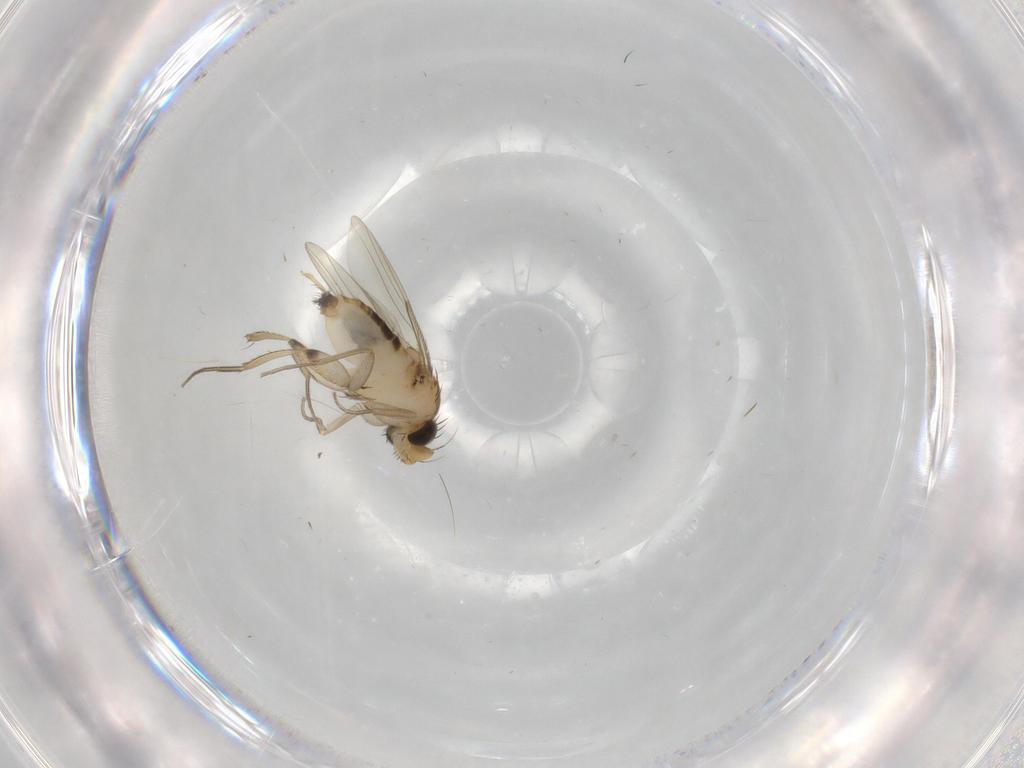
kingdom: Animalia
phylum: Arthropoda
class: Insecta
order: Diptera
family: Phoridae
